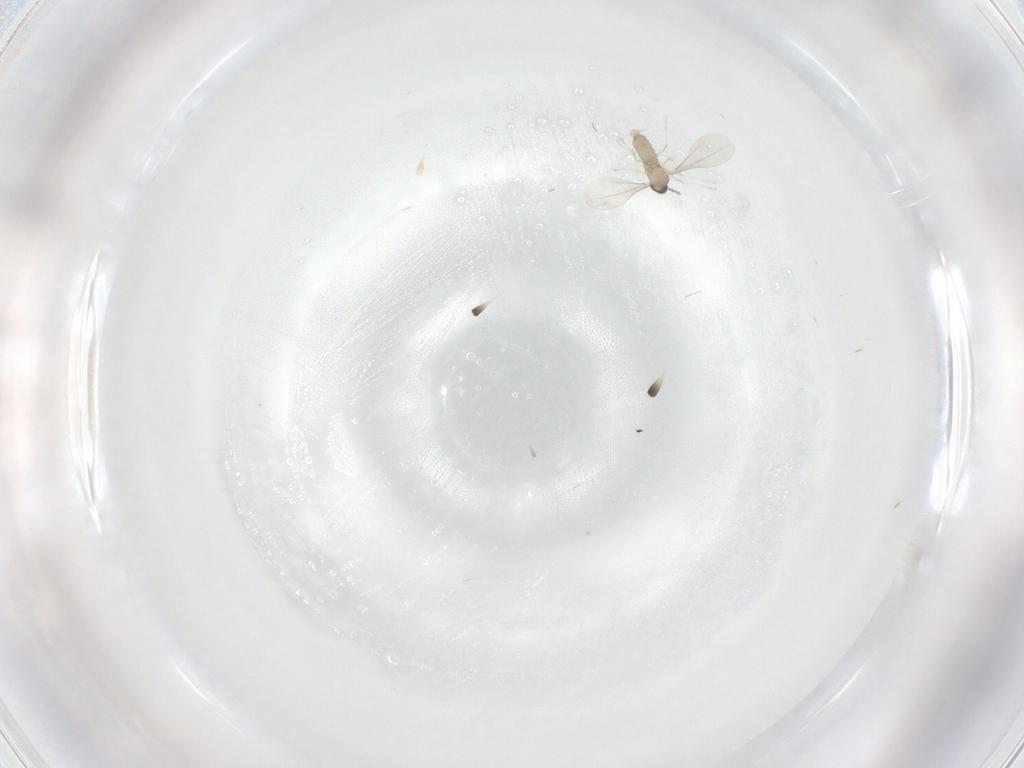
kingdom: Animalia
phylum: Arthropoda
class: Insecta
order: Diptera
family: Cecidomyiidae
